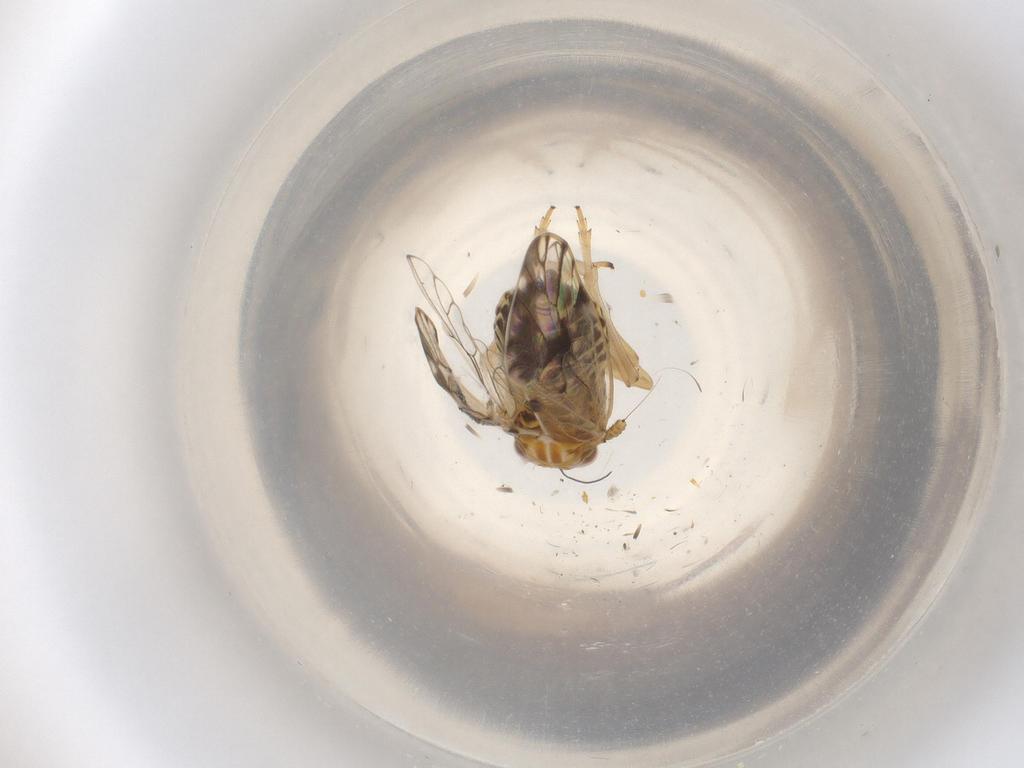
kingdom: Animalia
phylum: Arthropoda
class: Insecta
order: Hemiptera
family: Delphacidae
